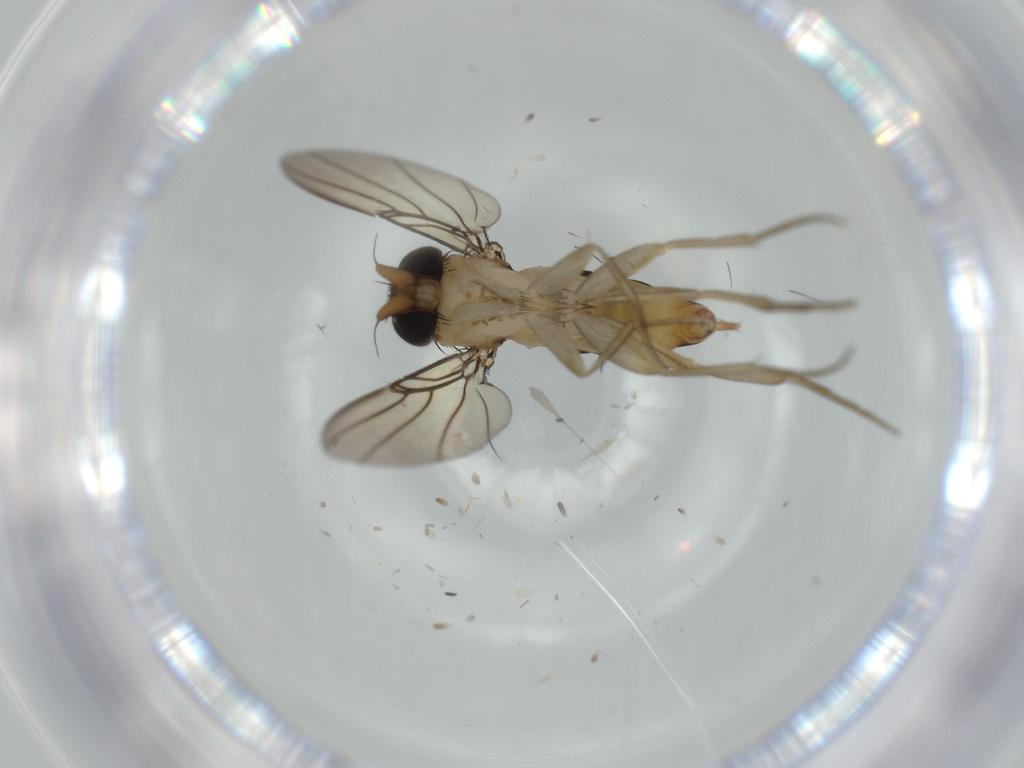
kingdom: Animalia
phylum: Arthropoda
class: Insecta
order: Diptera
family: Phoridae
